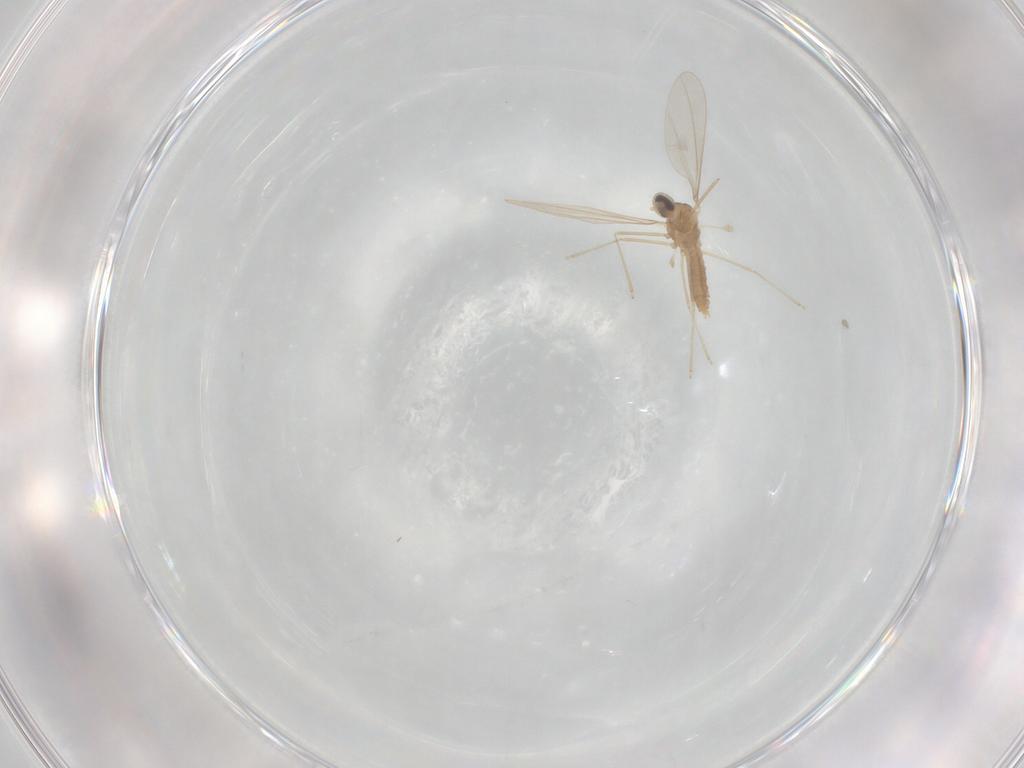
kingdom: Animalia
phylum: Arthropoda
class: Insecta
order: Diptera
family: Cecidomyiidae
